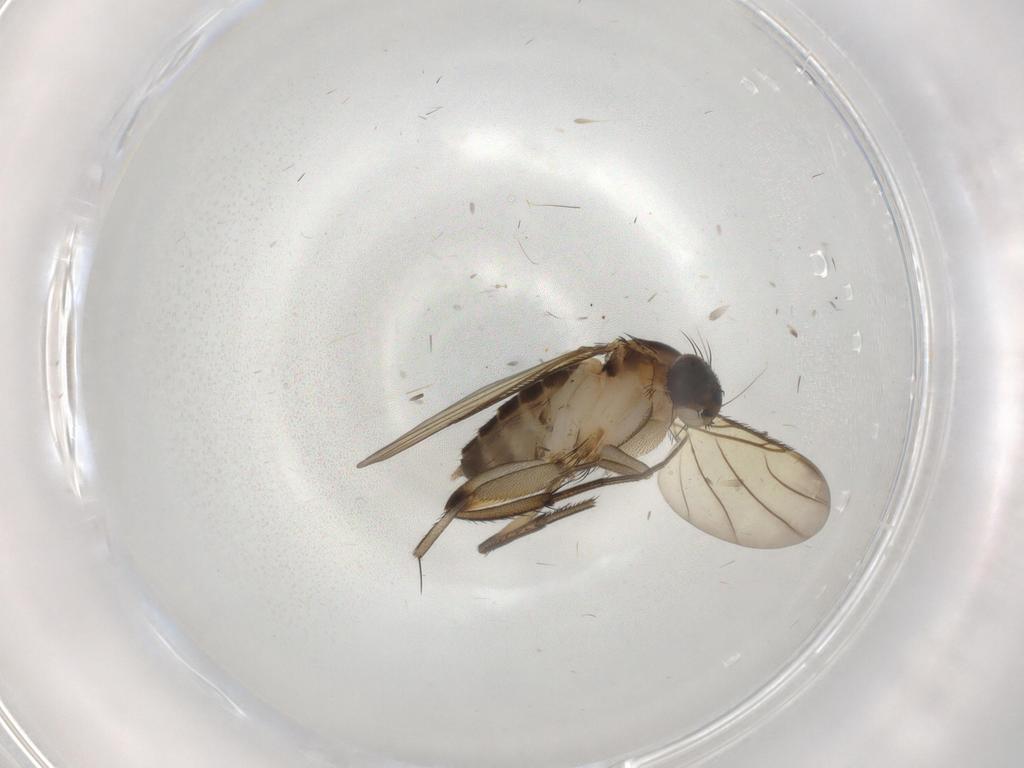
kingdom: Animalia
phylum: Arthropoda
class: Insecta
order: Diptera
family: Phoridae
